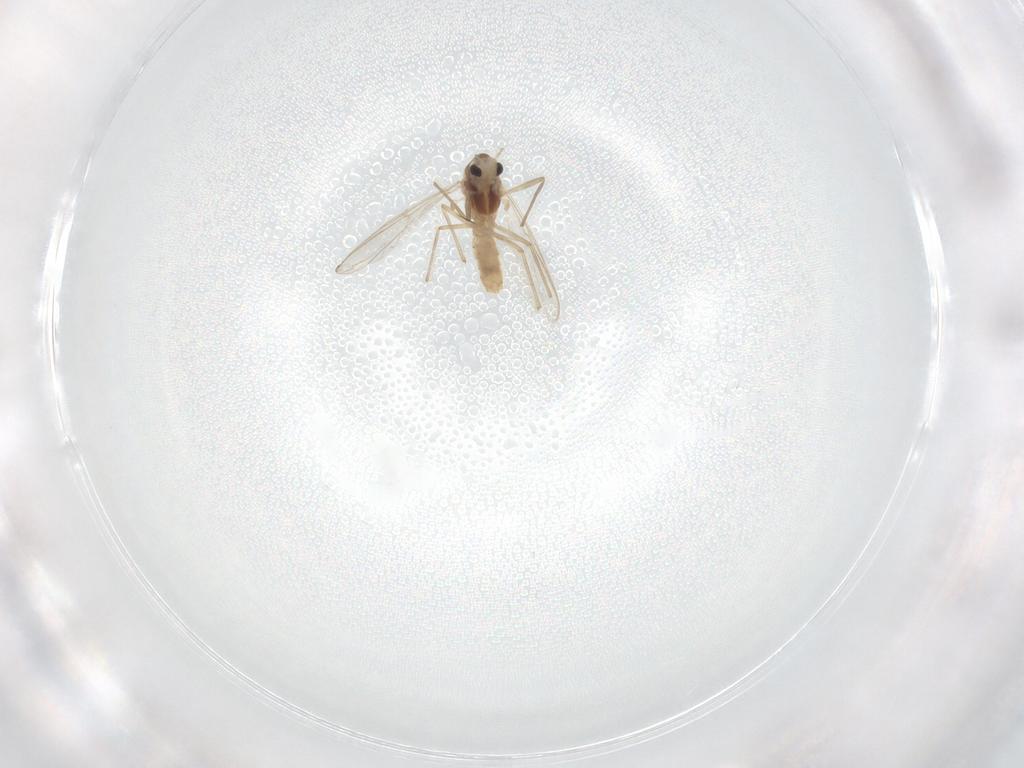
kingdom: Animalia
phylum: Arthropoda
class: Insecta
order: Diptera
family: Chironomidae
